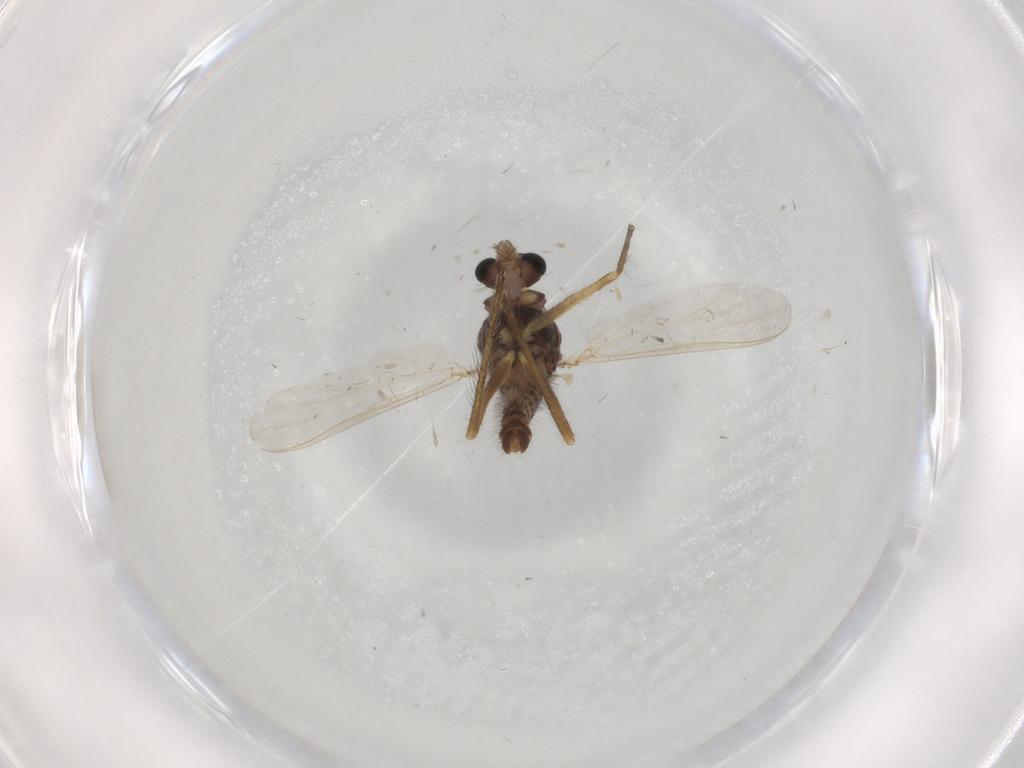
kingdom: Animalia
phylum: Arthropoda
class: Insecta
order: Diptera
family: Chironomidae
